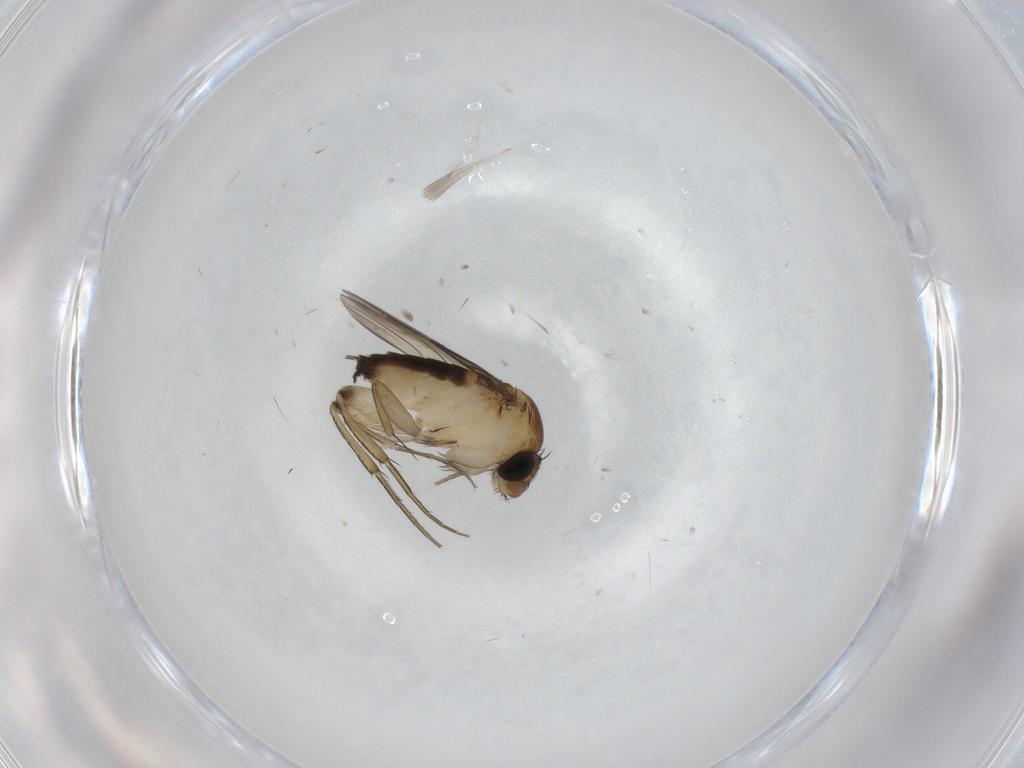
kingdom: Animalia
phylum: Arthropoda
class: Insecta
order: Diptera
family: Phoridae
